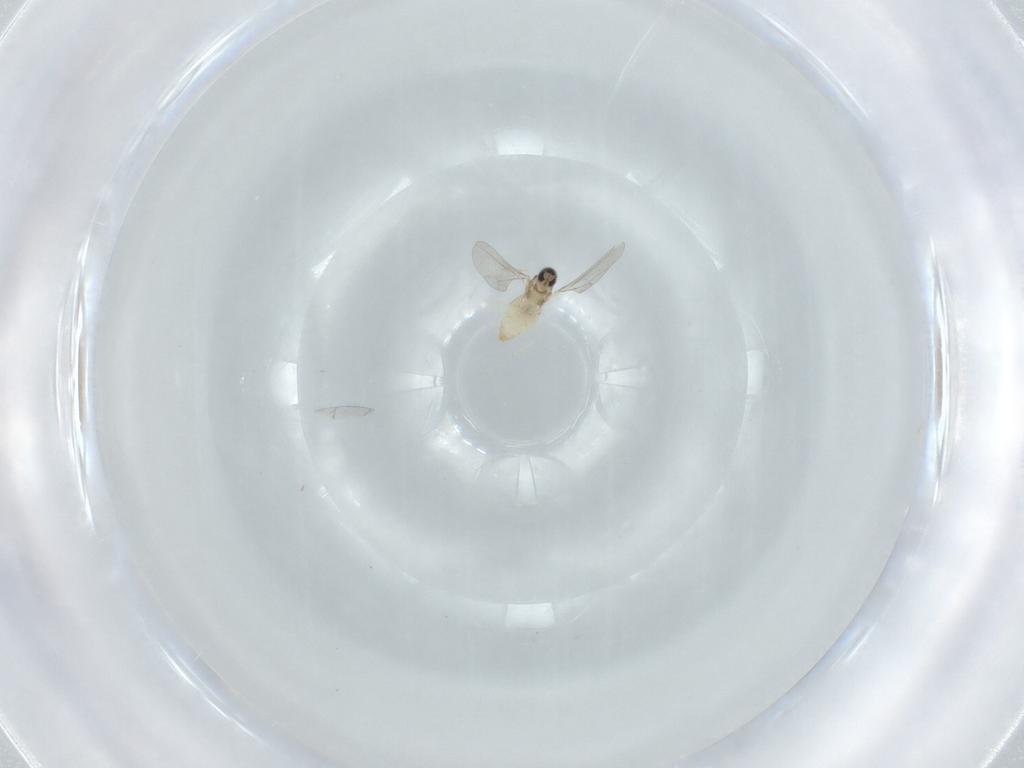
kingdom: Animalia
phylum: Arthropoda
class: Insecta
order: Diptera
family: Cecidomyiidae
